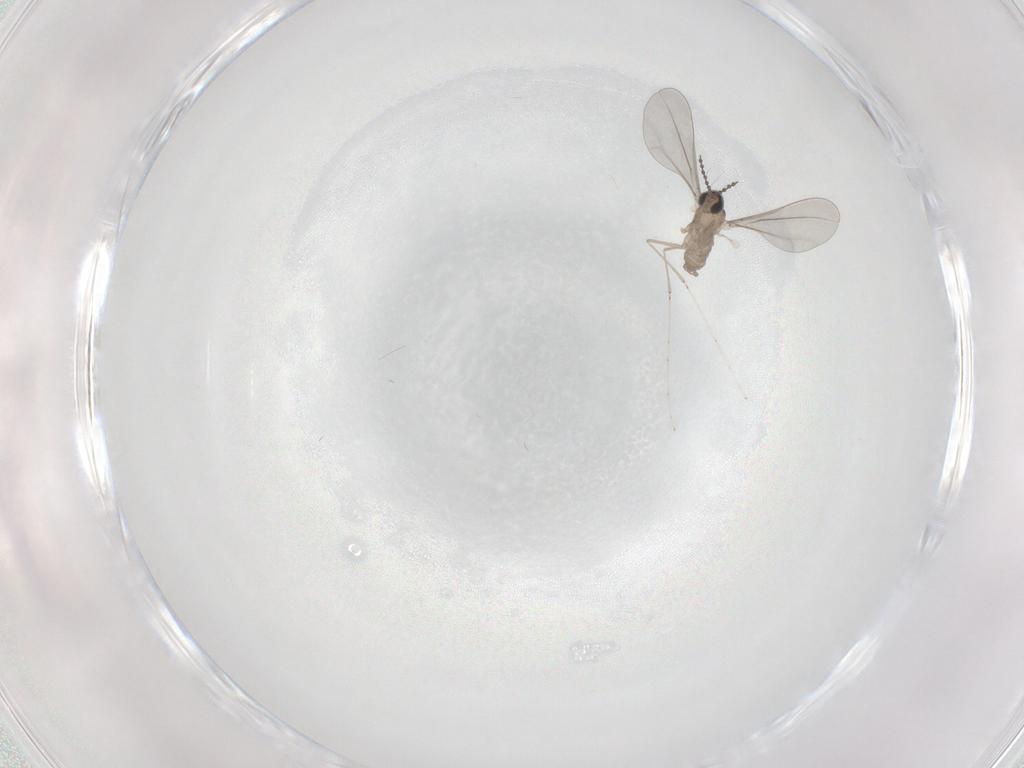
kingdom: Animalia
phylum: Arthropoda
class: Insecta
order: Diptera
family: Cecidomyiidae
